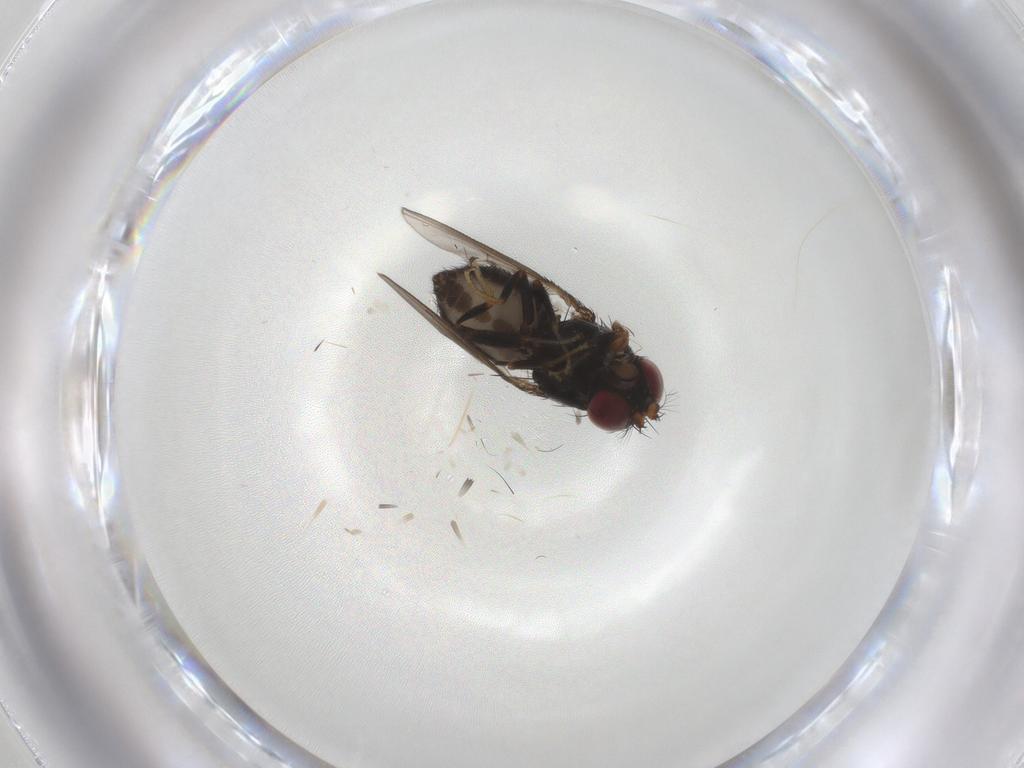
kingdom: Animalia
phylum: Arthropoda
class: Insecta
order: Diptera
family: Ephydridae
